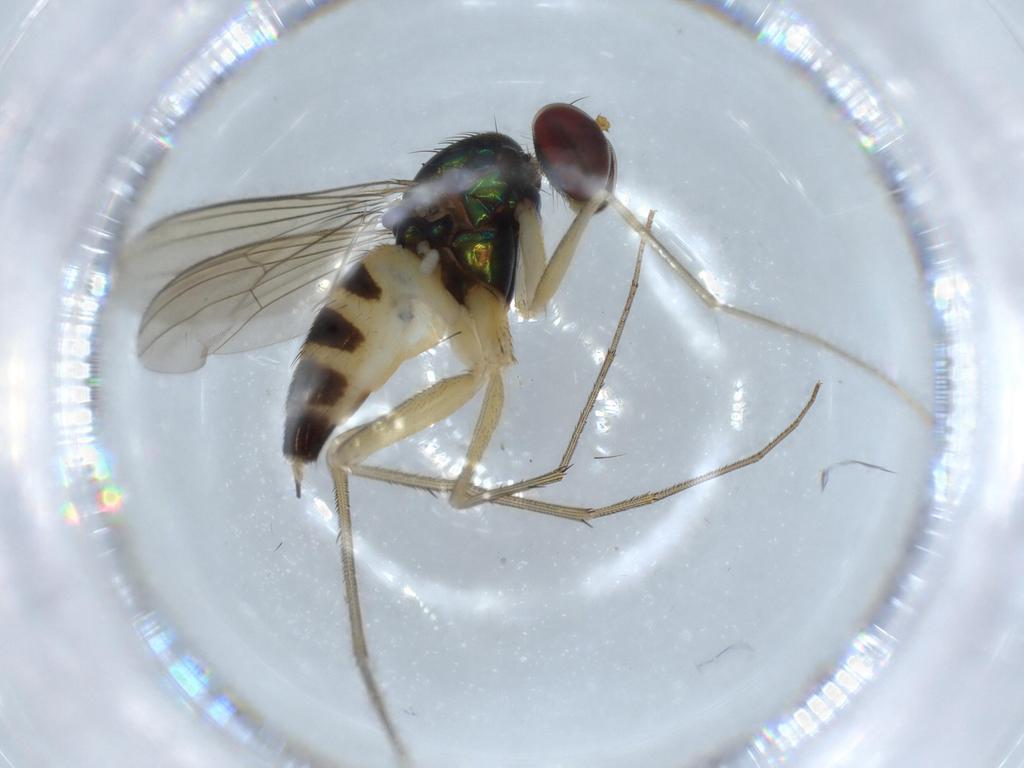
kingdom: Animalia
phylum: Arthropoda
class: Insecta
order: Diptera
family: Dolichopodidae
